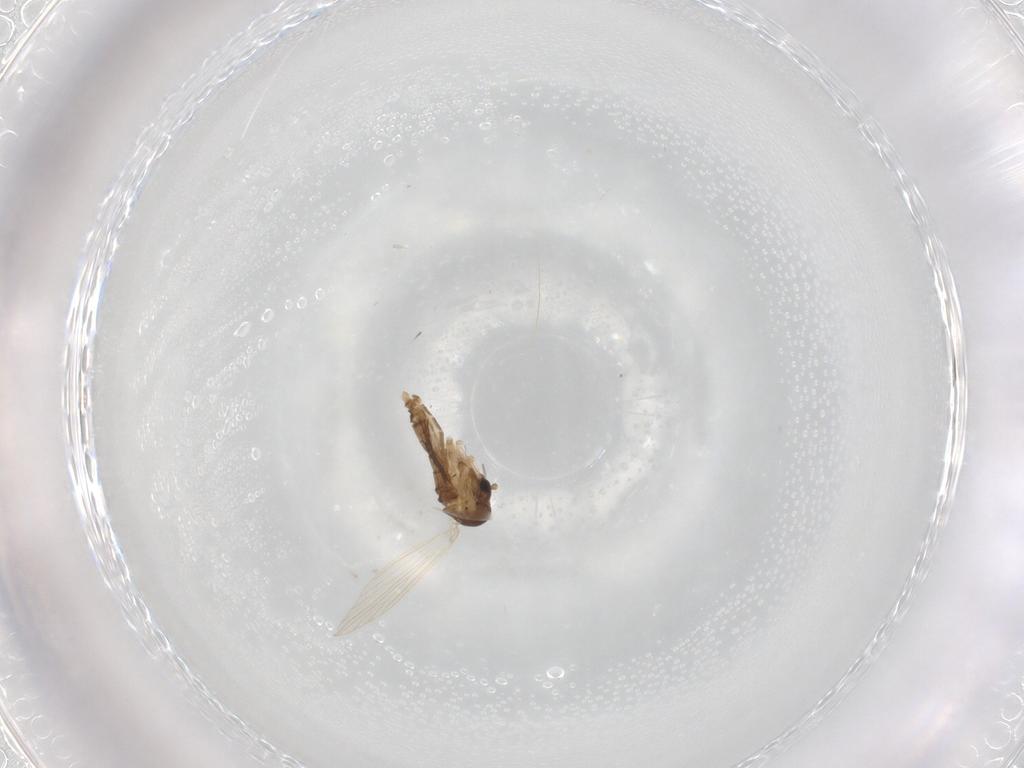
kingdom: Animalia
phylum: Arthropoda
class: Insecta
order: Diptera
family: Psychodidae
